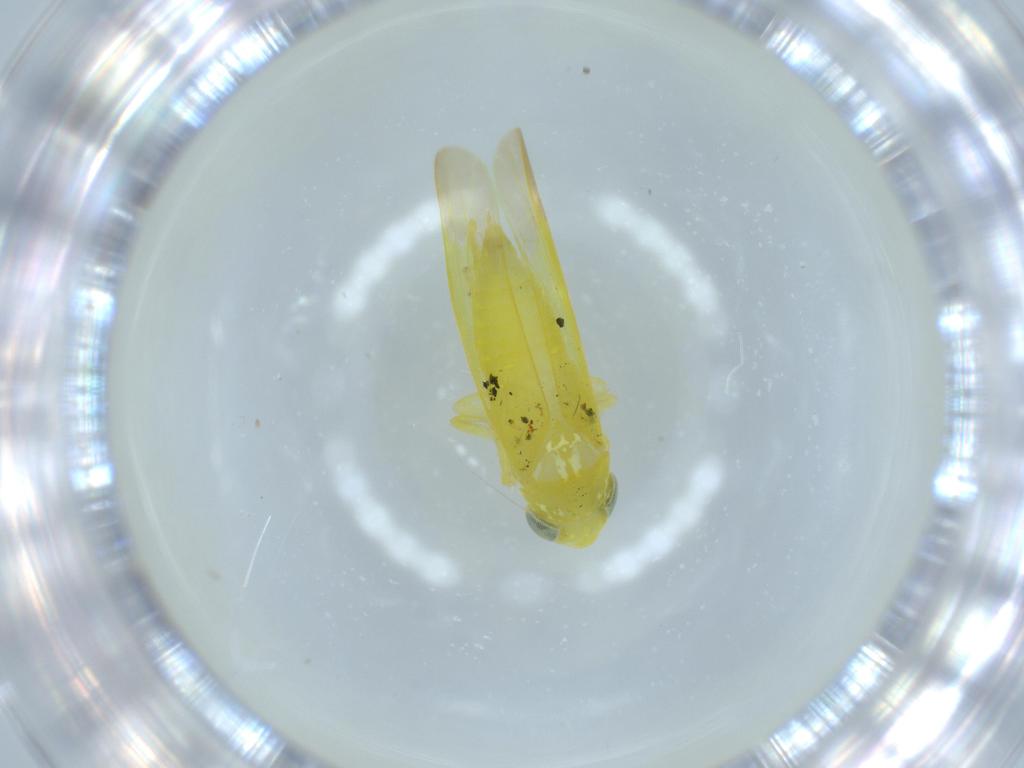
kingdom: Animalia
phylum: Arthropoda
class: Insecta
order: Hemiptera
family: Cicadellidae
